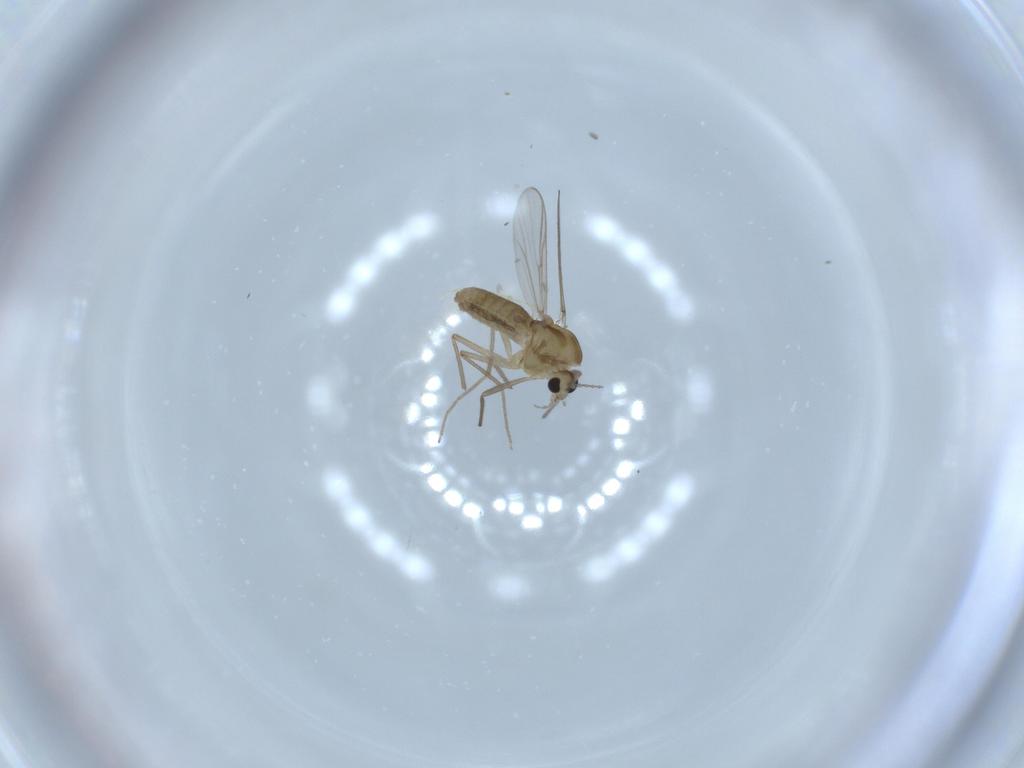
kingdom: Animalia
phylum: Arthropoda
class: Insecta
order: Diptera
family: Chironomidae
